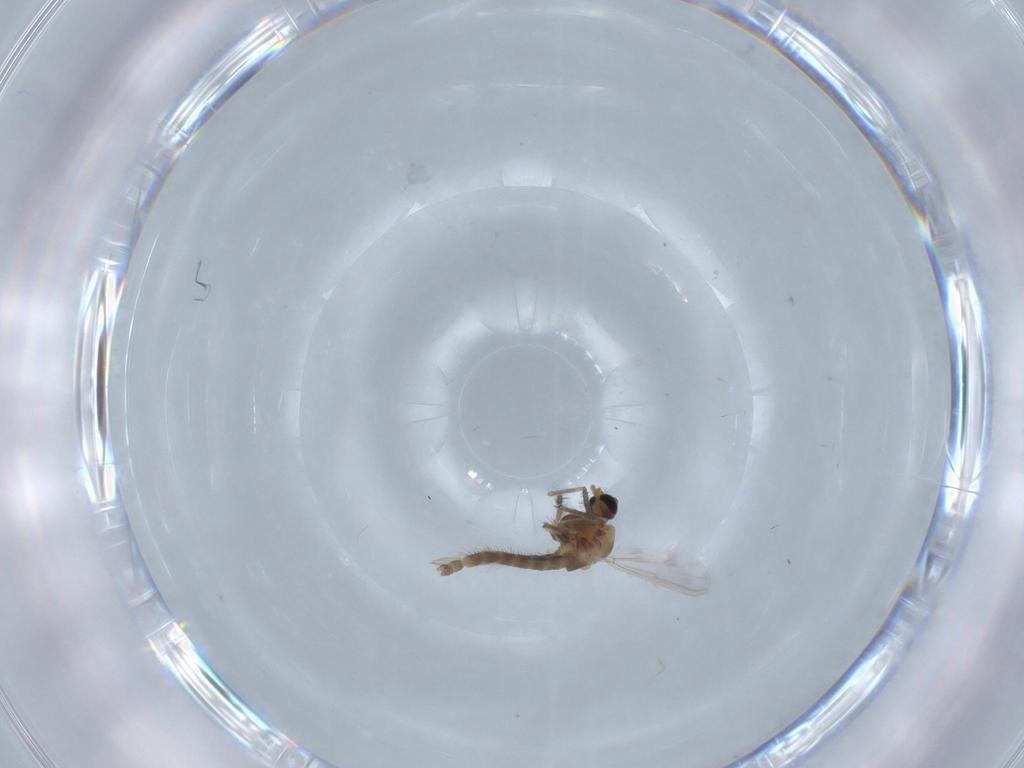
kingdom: Animalia
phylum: Arthropoda
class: Insecta
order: Diptera
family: Chironomidae
